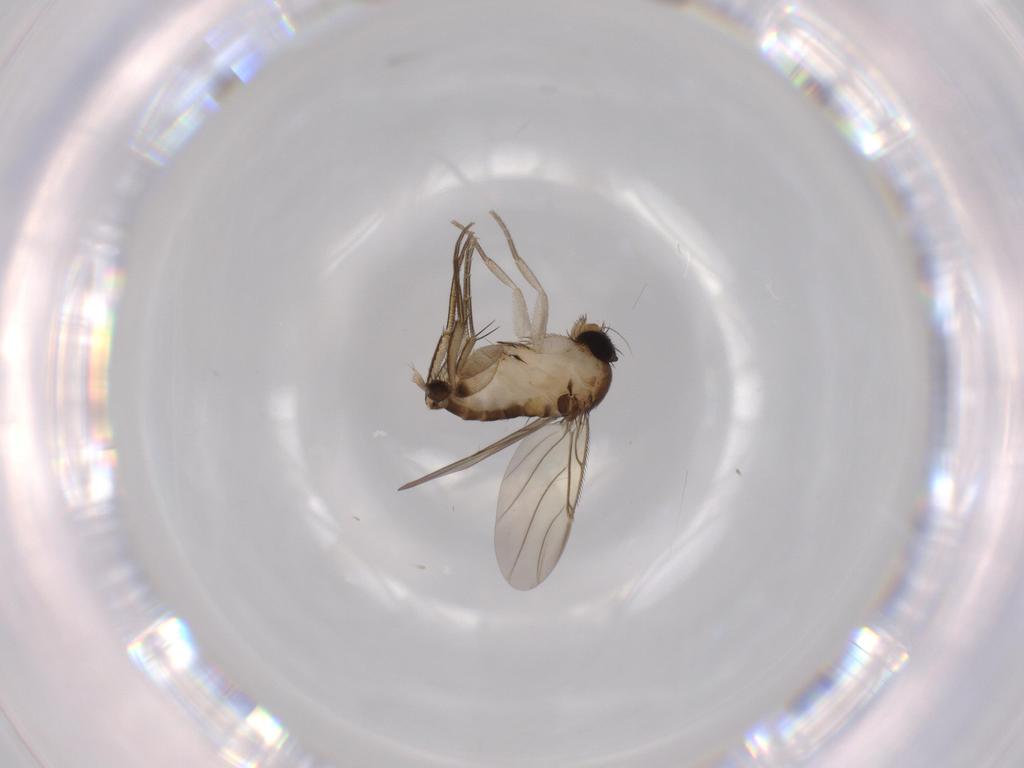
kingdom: Animalia
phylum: Arthropoda
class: Insecta
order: Diptera
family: Phoridae
